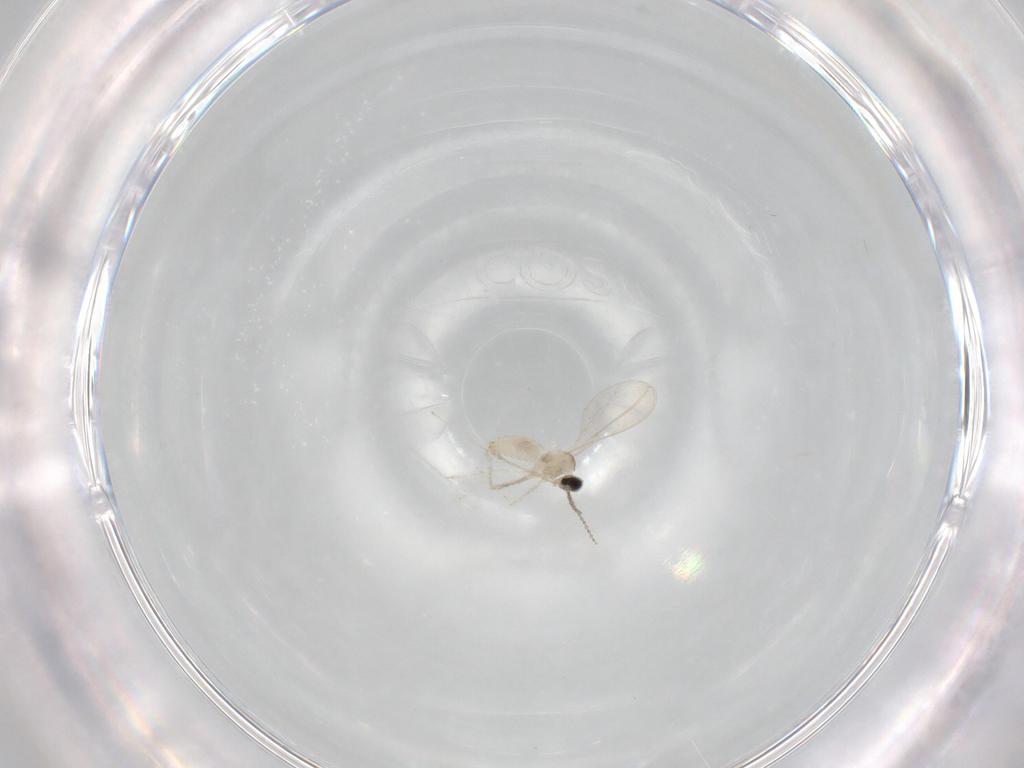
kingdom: Animalia
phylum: Arthropoda
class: Insecta
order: Diptera
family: Cecidomyiidae
